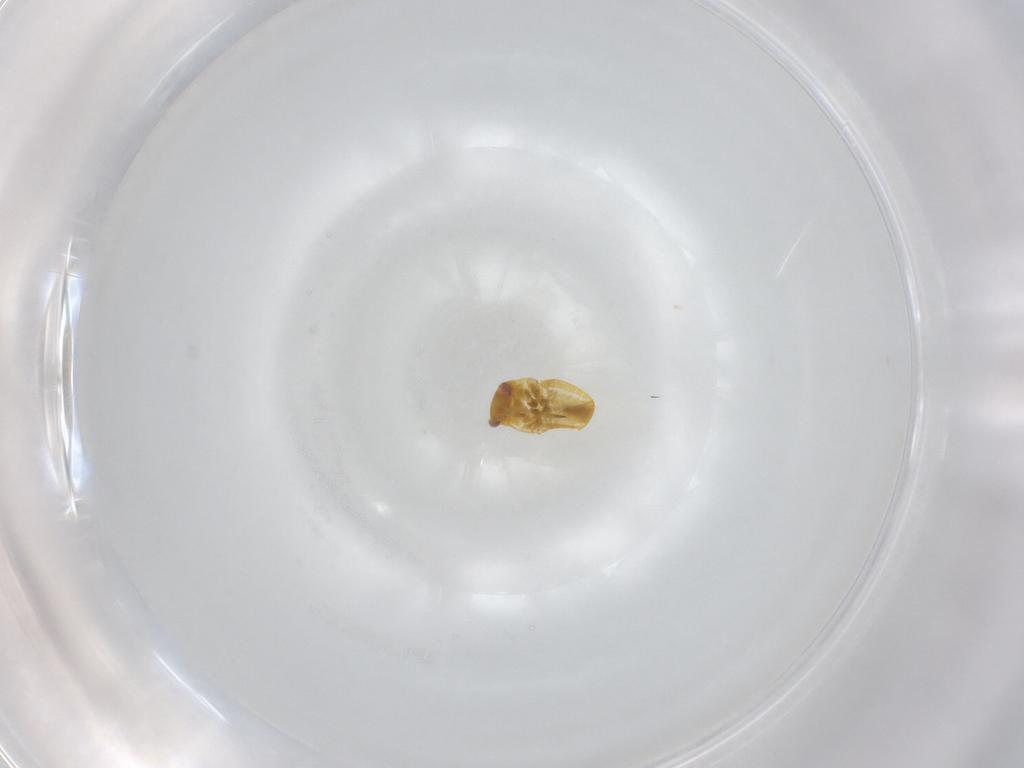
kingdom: Animalia
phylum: Arthropoda
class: Insecta
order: Hemiptera
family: Miridae
